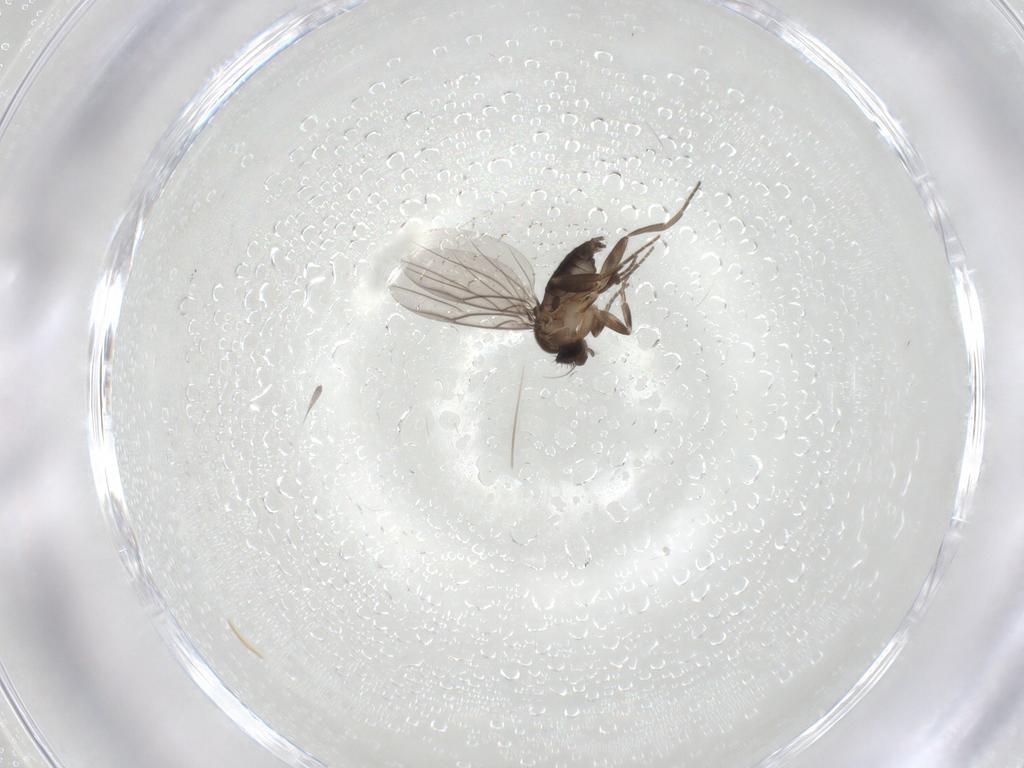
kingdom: Animalia
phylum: Arthropoda
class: Insecta
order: Diptera
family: Phoridae
